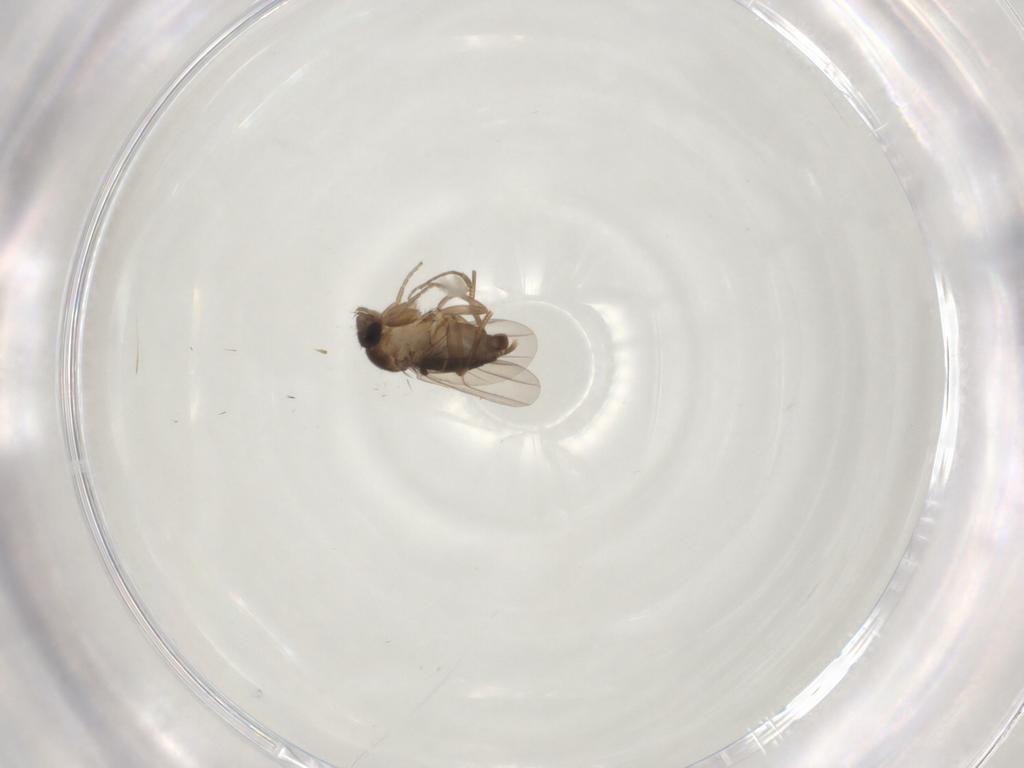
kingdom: Animalia
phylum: Arthropoda
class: Insecta
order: Diptera
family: Phoridae
